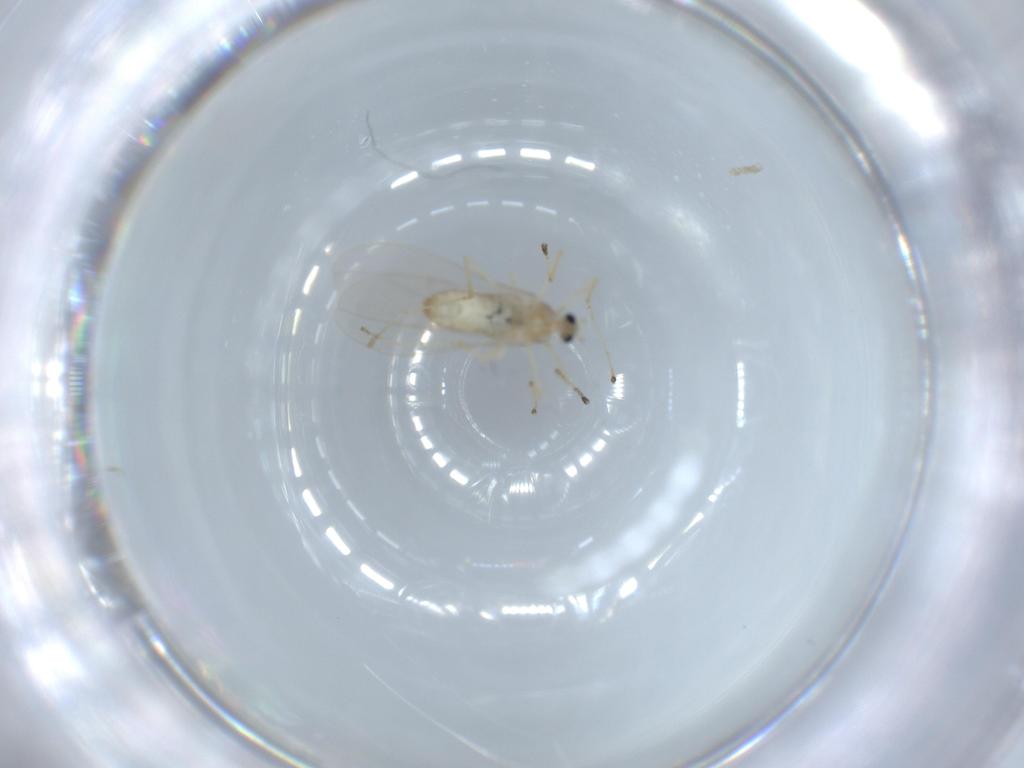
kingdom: Animalia
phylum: Arthropoda
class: Insecta
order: Diptera
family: Cecidomyiidae
